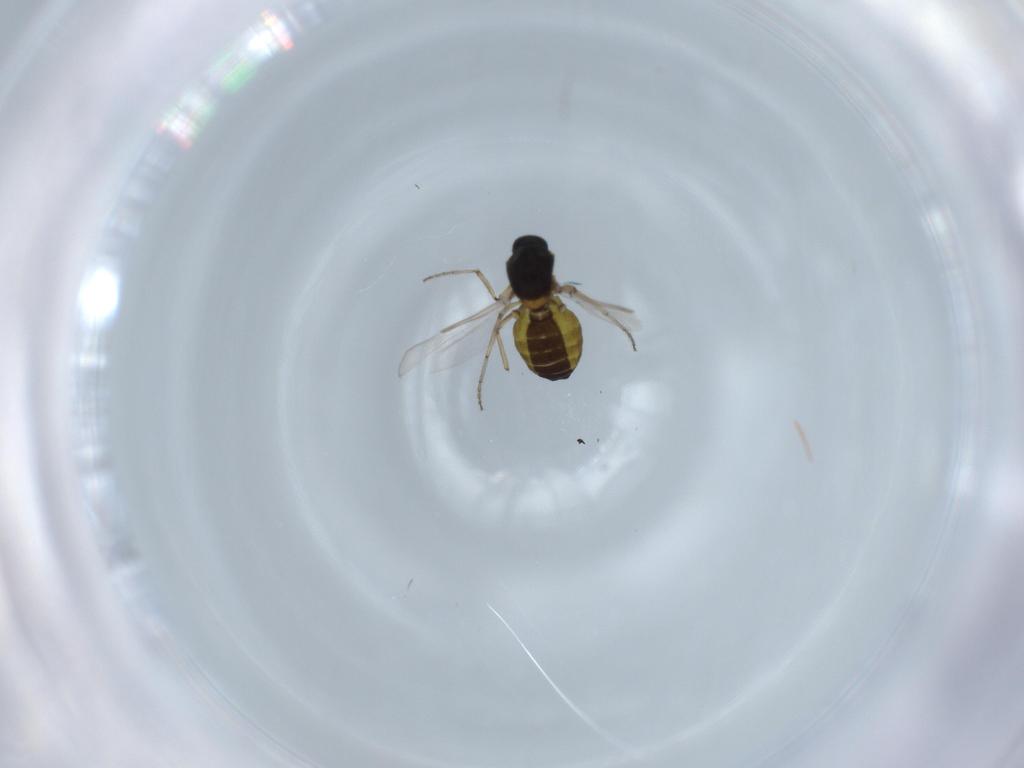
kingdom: Animalia
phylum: Arthropoda
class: Insecta
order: Diptera
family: Ceratopogonidae
